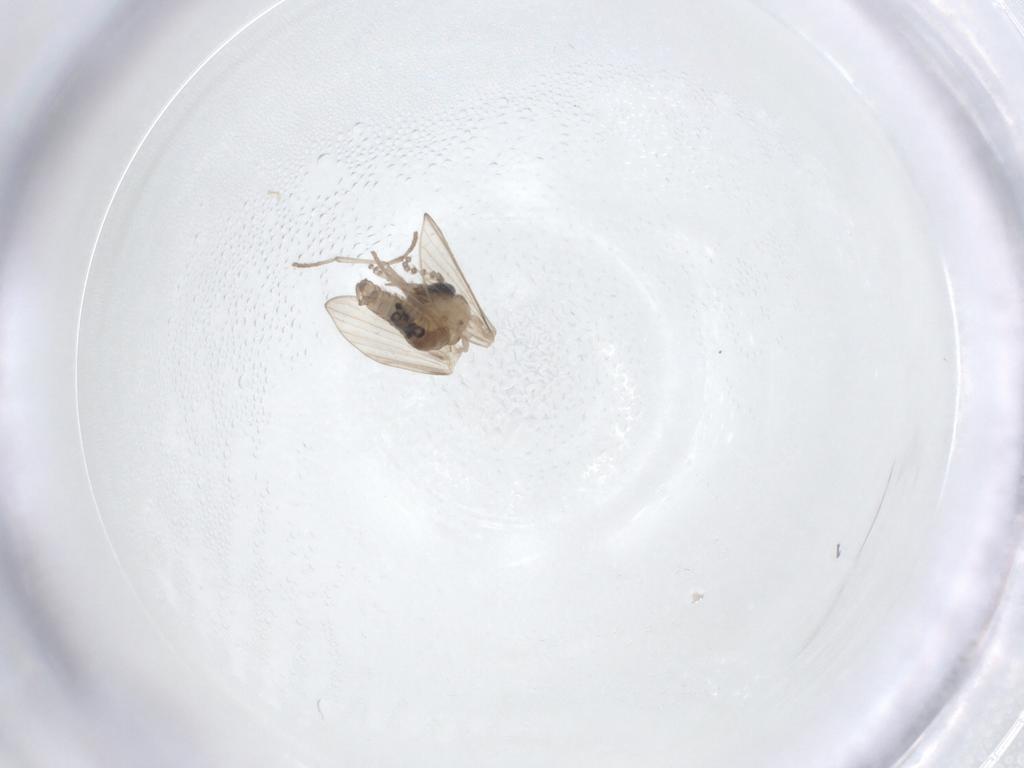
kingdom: Animalia
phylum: Arthropoda
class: Insecta
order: Diptera
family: Psychodidae
